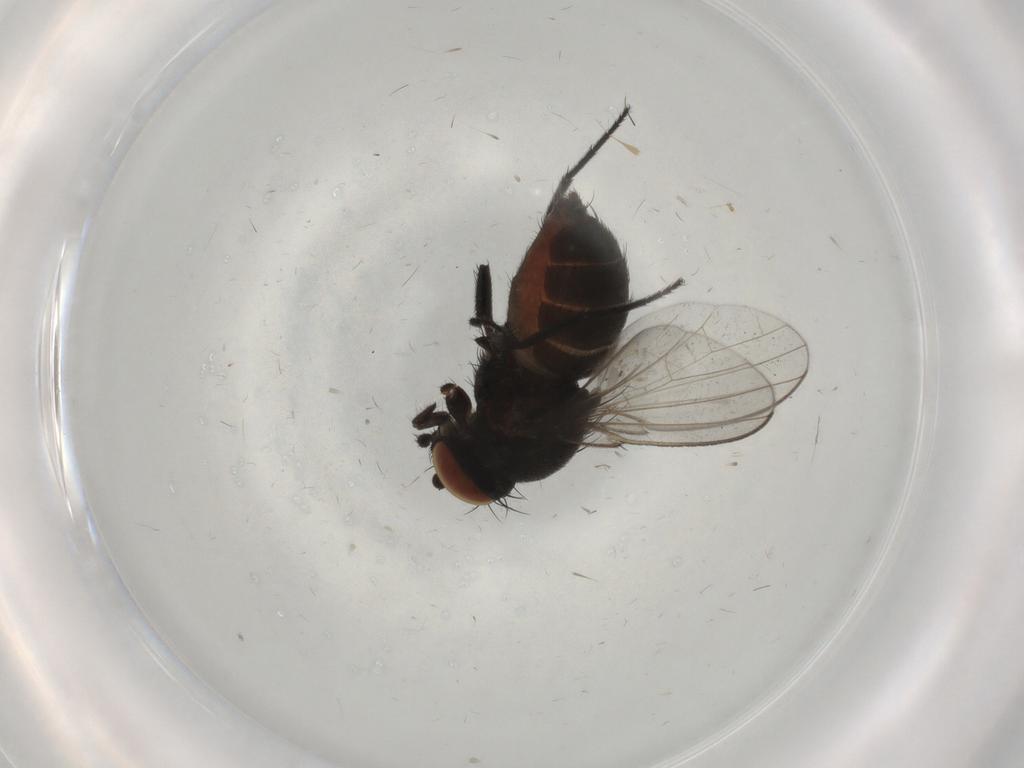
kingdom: Animalia
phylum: Arthropoda
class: Insecta
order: Diptera
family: Milichiidae
